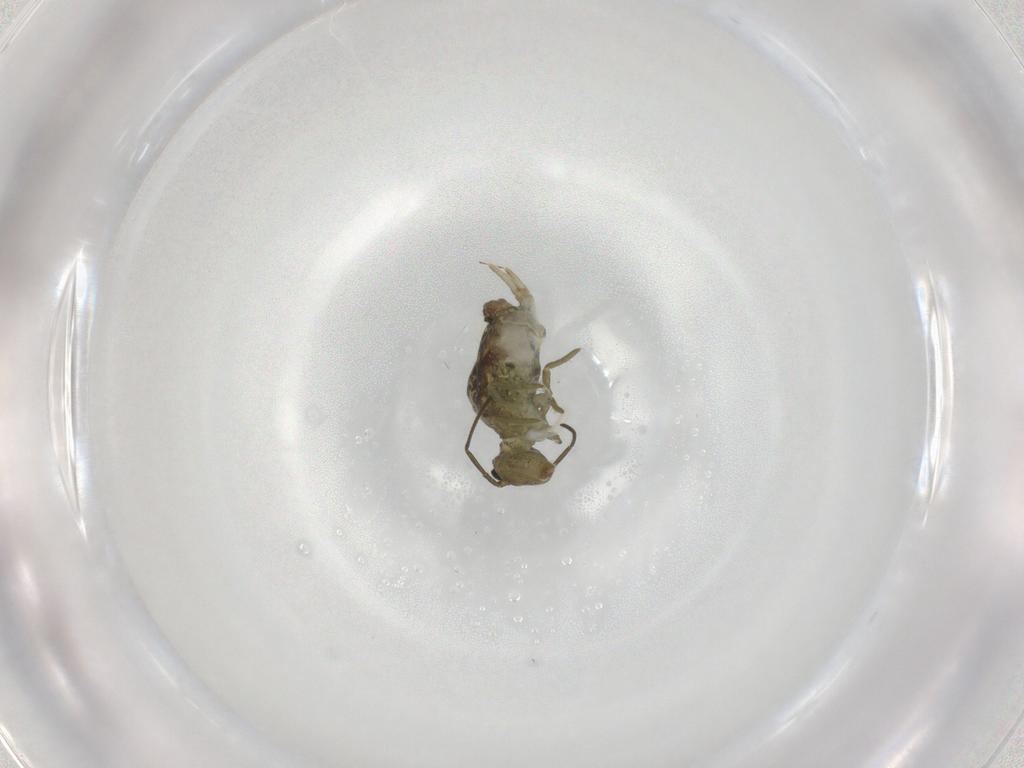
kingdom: Animalia
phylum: Arthropoda
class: Collembola
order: Symphypleona
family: Sminthuridae
